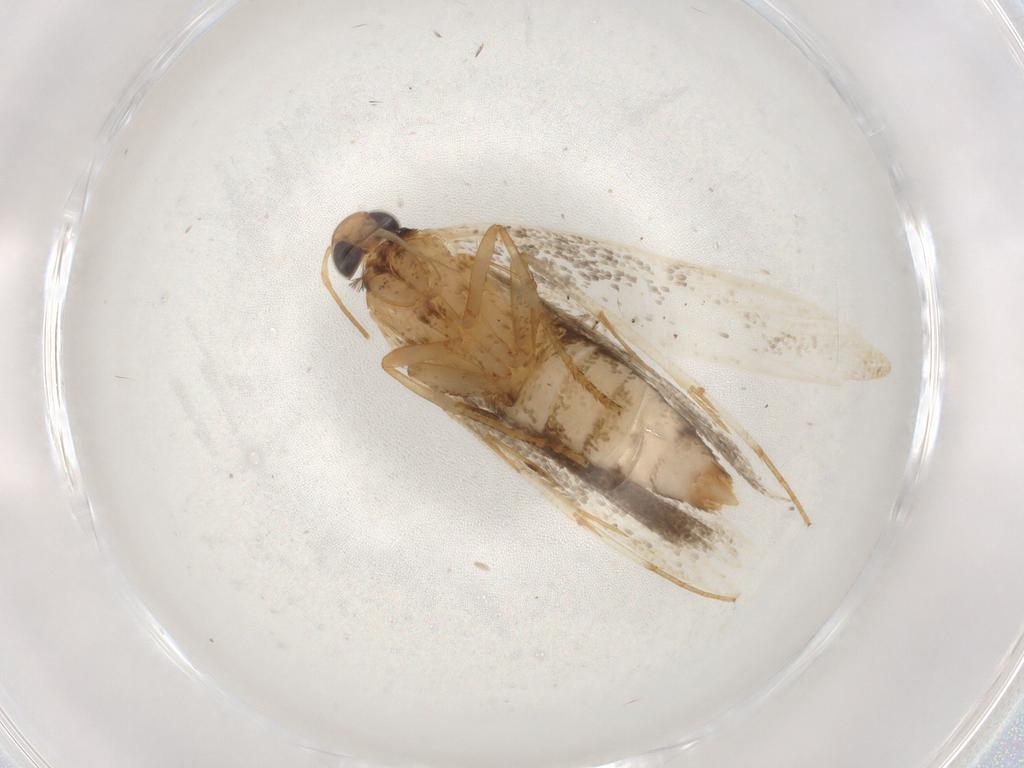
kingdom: Animalia
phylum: Arthropoda
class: Insecta
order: Lepidoptera
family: Gelechiidae
